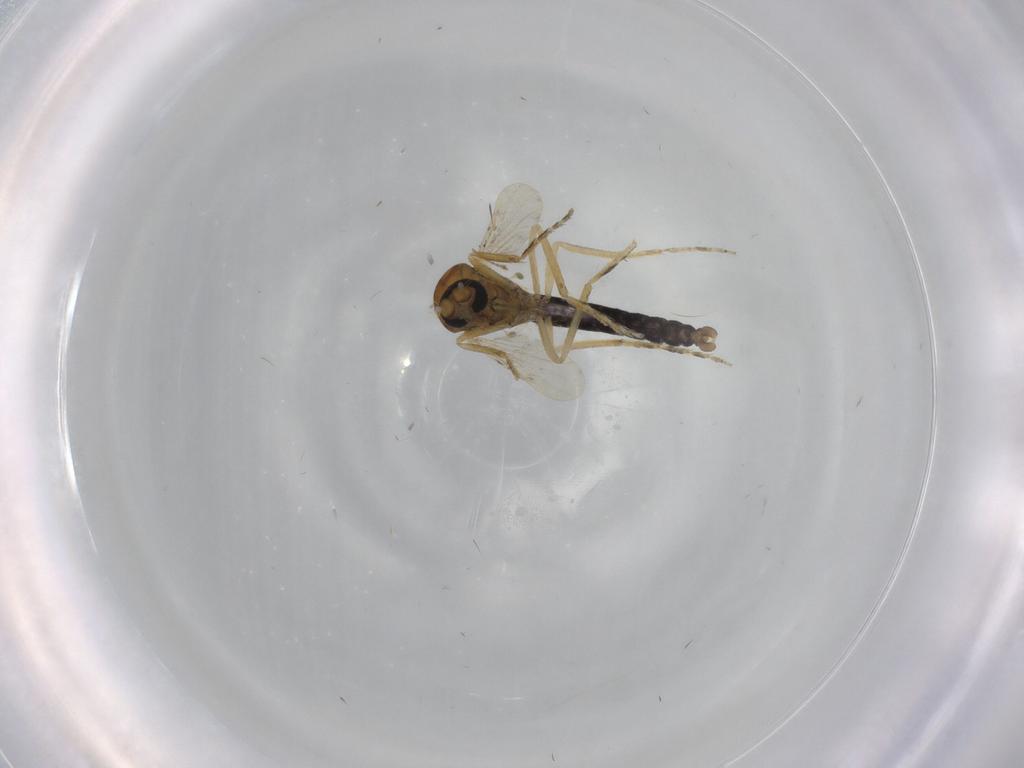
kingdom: Animalia
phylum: Arthropoda
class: Insecta
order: Diptera
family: Ceratopogonidae
